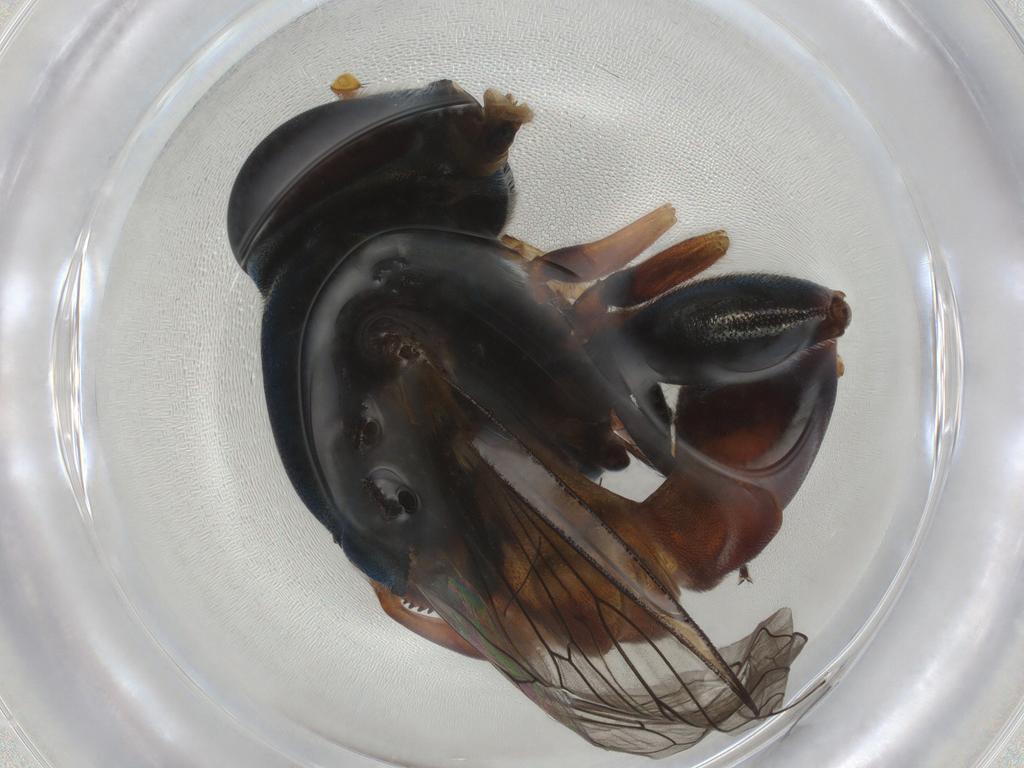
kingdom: Animalia
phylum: Arthropoda
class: Insecta
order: Diptera
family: Syrphidae
